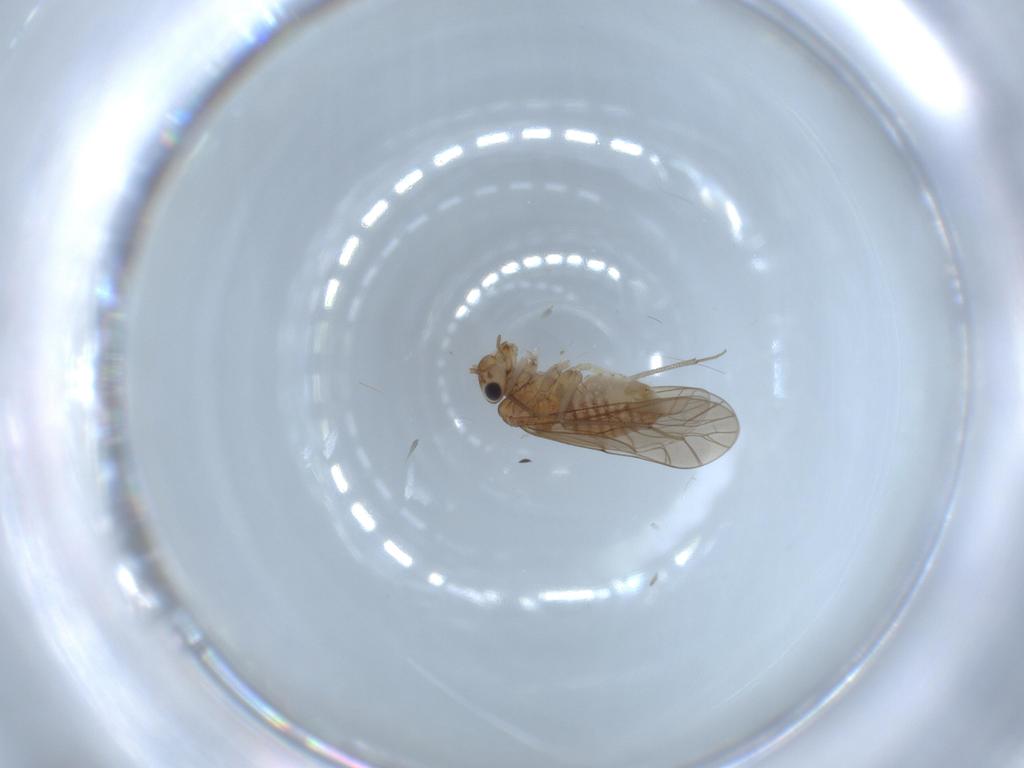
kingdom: Animalia
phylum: Arthropoda
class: Insecta
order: Psocodea
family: Lachesillidae
